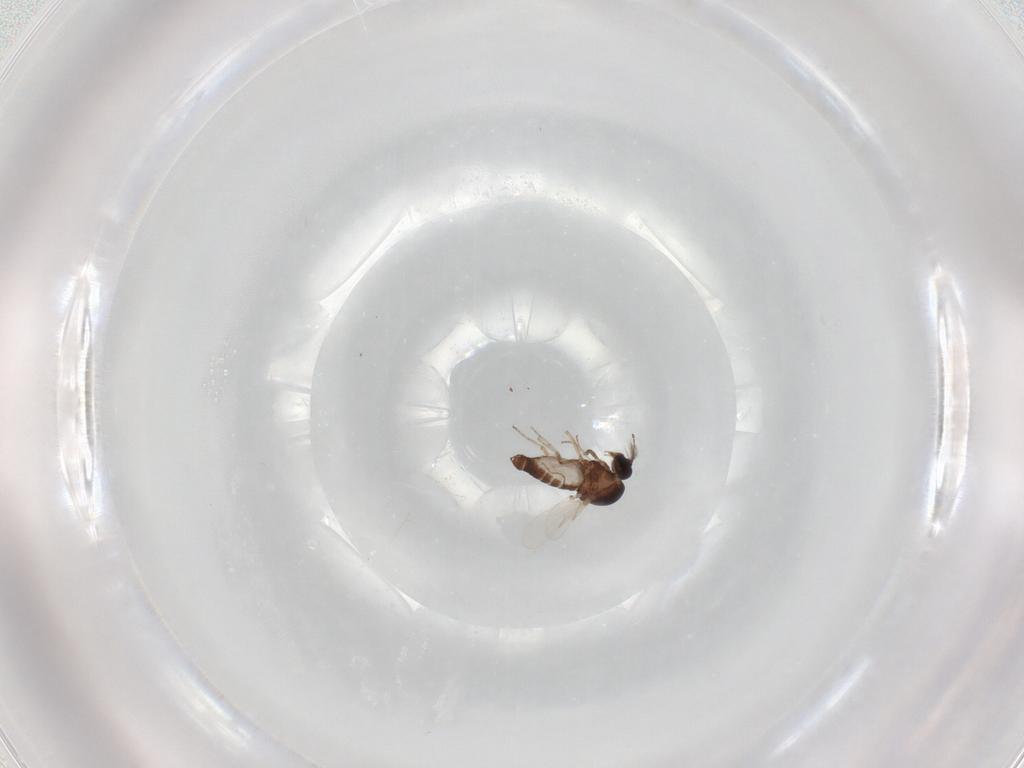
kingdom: Animalia
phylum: Arthropoda
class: Insecta
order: Diptera
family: Ceratopogonidae
